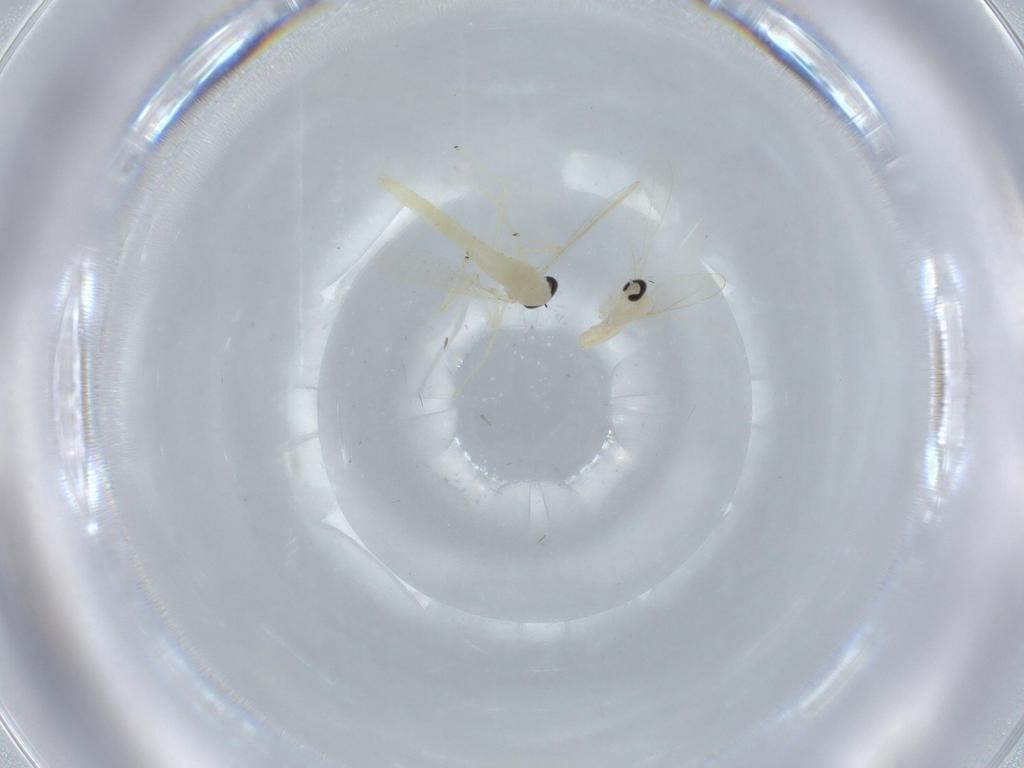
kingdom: Animalia
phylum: Arthropoda
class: Insecta
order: Diptera
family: Chironomidae
